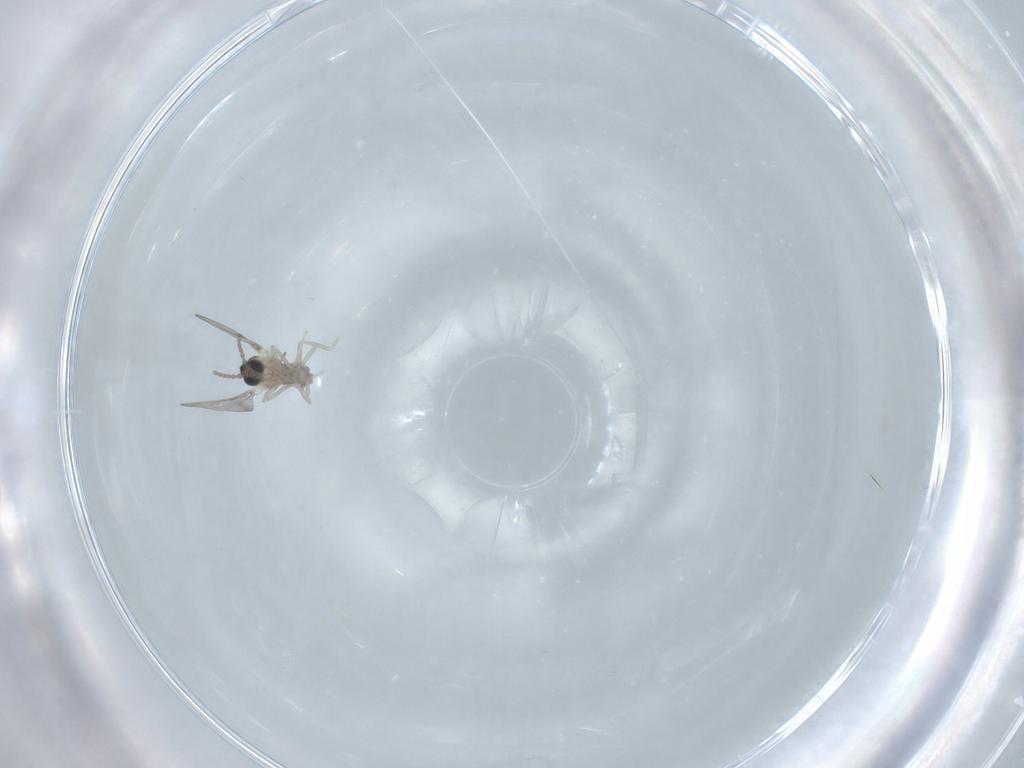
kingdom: Animalia
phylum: Arthropoda
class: Insecta
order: Diptera
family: Cecidomyiidae
